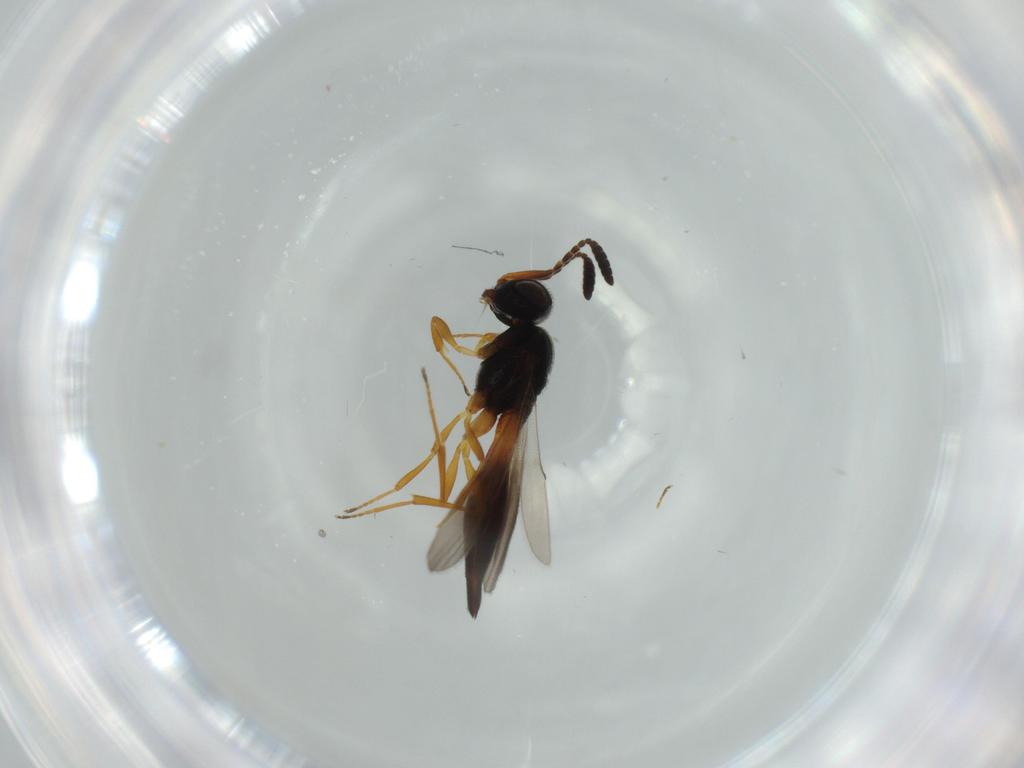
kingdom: Animalia
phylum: Arthropoda
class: Insecta
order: Hymenoptera
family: Scelionidae
